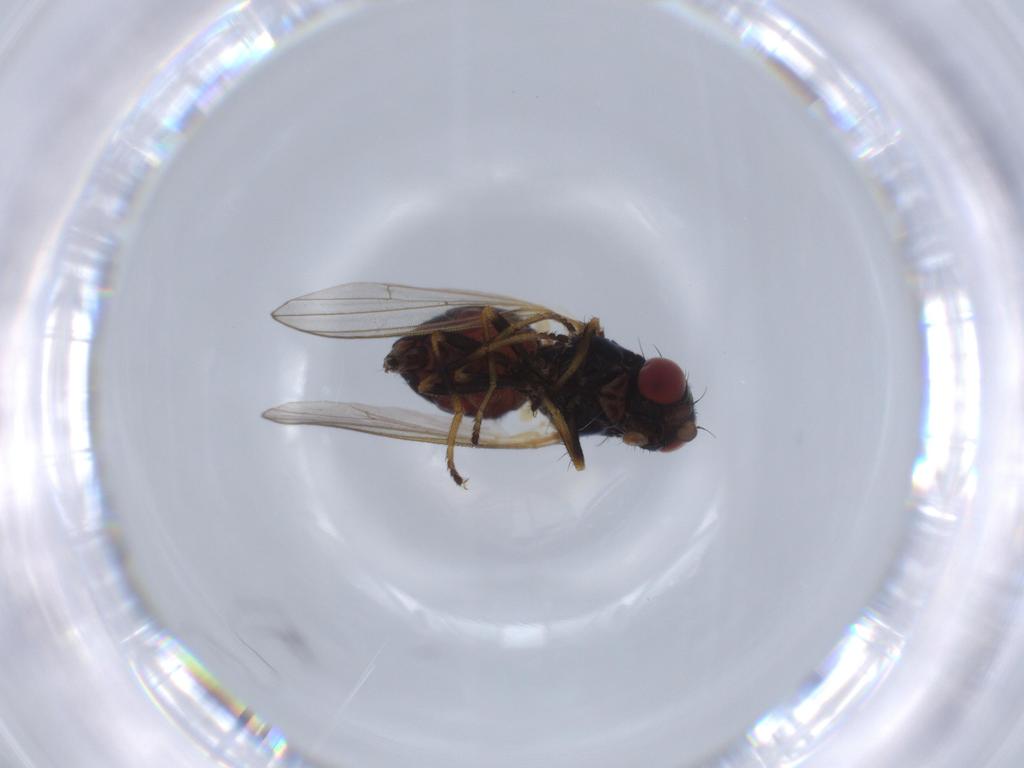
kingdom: Animalia
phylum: Arthropoda
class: Insecta
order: Diptera
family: Piophilidae
